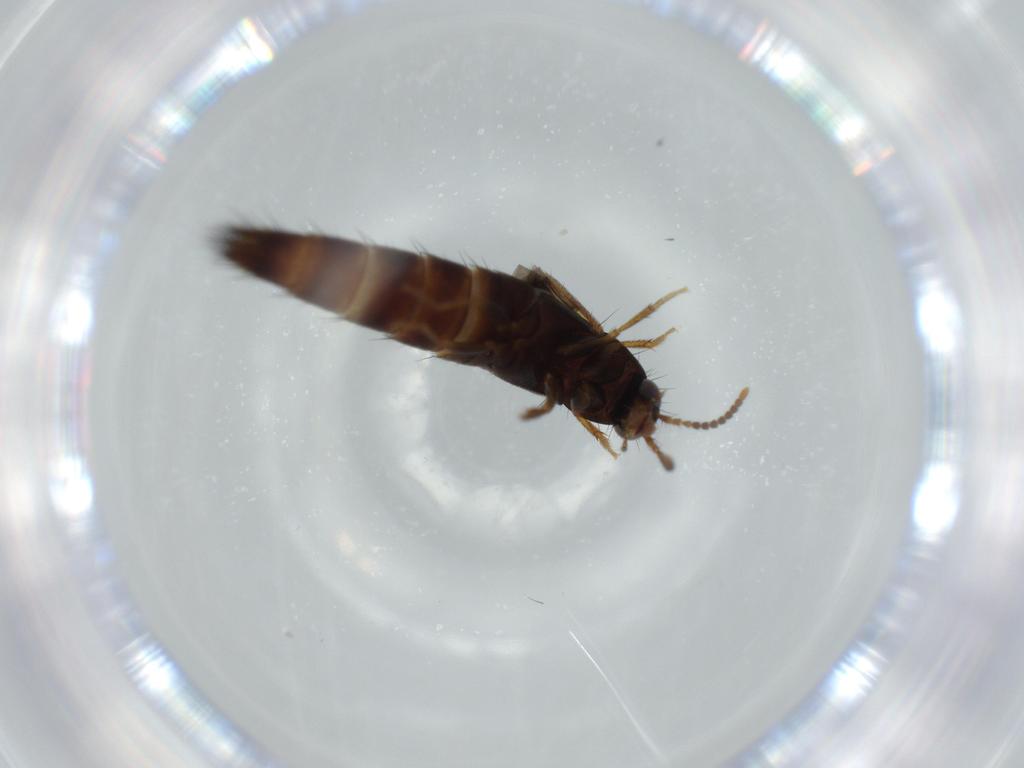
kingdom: Animalia
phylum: Arthropoda
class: Insecta
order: Coleoptera
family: Staphylinidae
